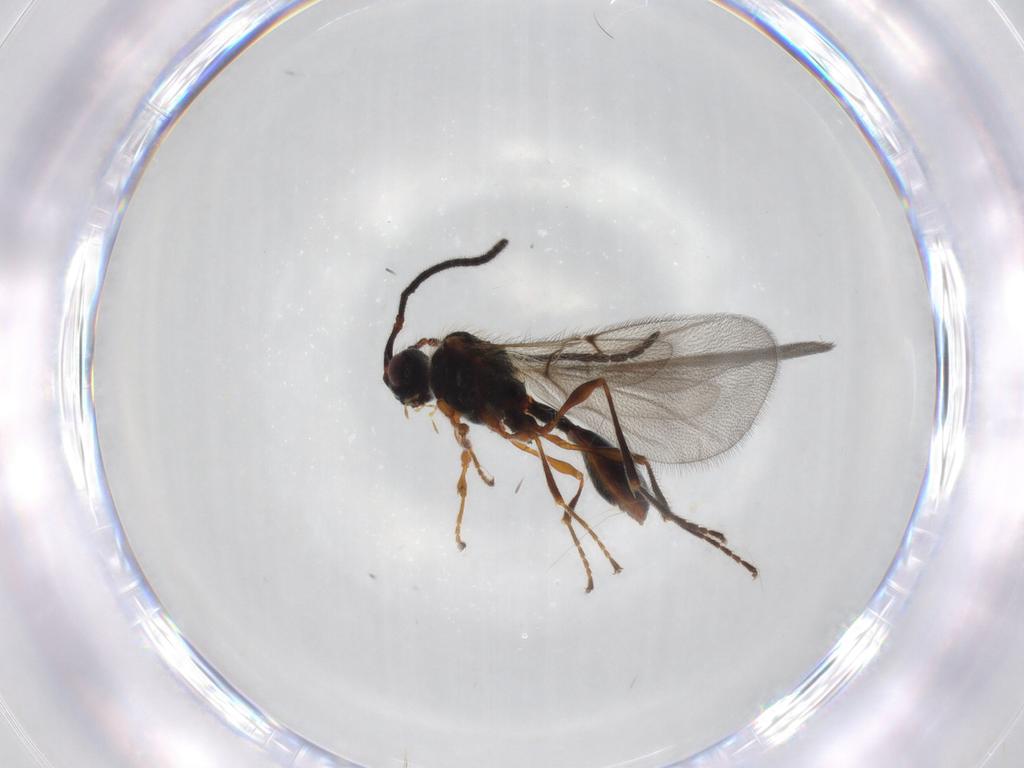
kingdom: Animalia
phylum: Arthropoda
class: Insecta
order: Hymenoptera
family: Diapriidae
